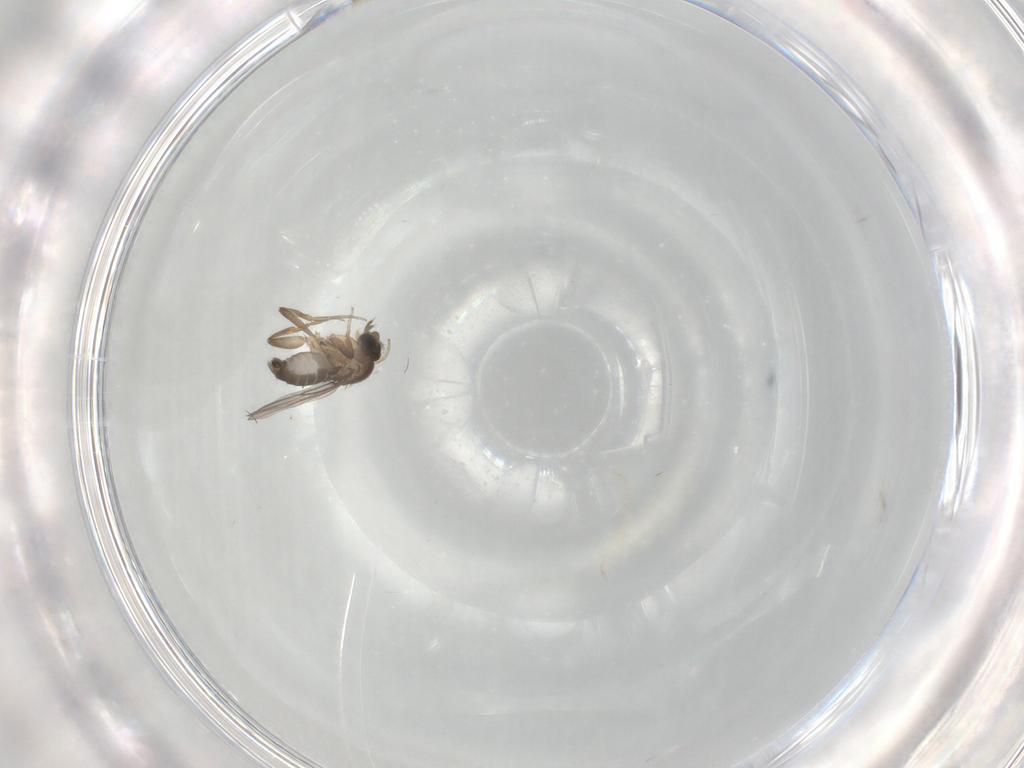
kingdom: Animalia
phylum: Arthropoda
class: Insecta
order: Diptera
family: Phoridae
